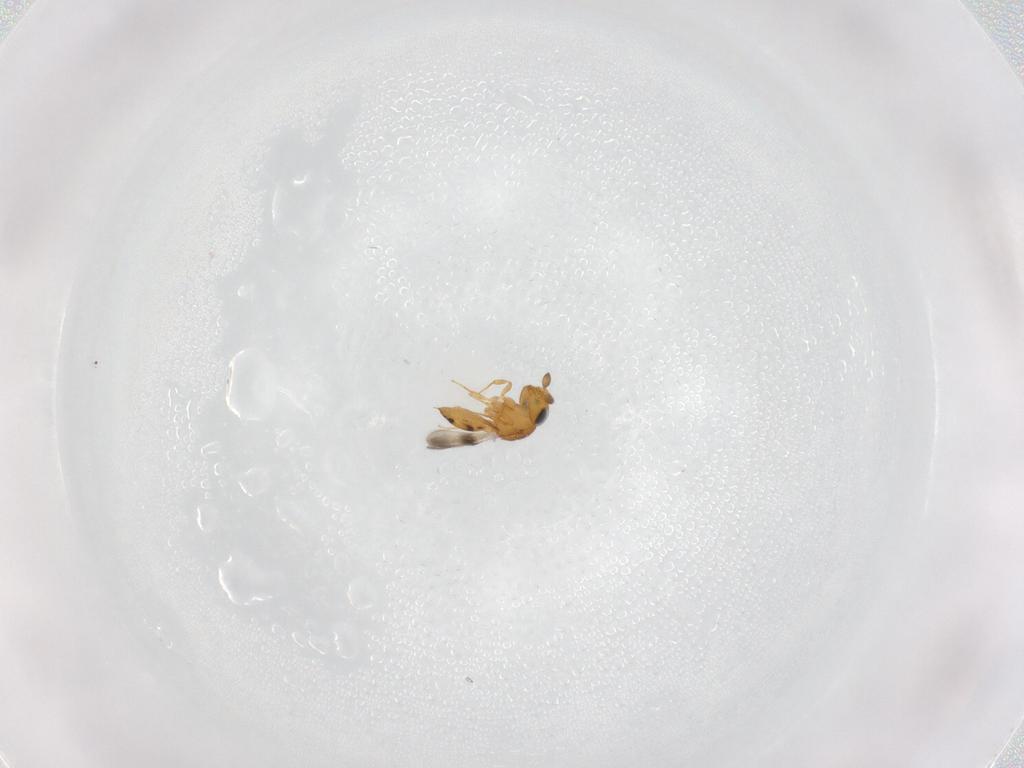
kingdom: Animalia
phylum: Arthropoda
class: Insecta
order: Hymenoptera
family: Scelionidae
